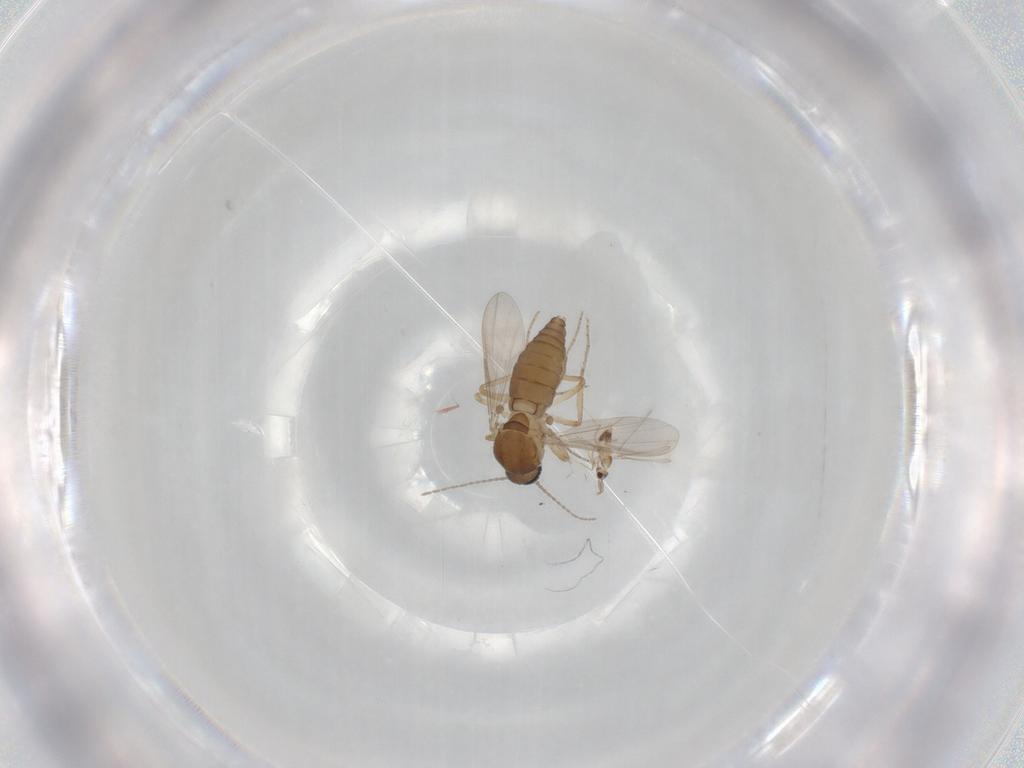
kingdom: Animalia
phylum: Arthropoda
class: Insecta
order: Diptera
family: Ceratopogonidae
